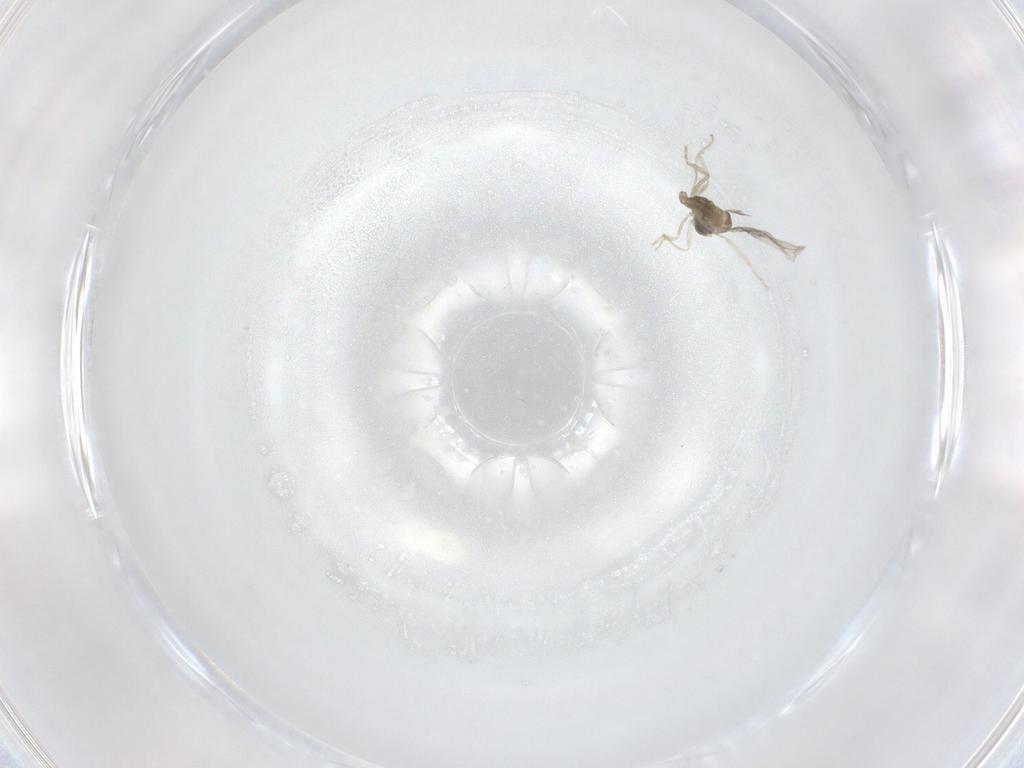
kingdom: Animalia
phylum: Arthropoda
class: Insecta
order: Diptera
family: Cecidomyiidae
